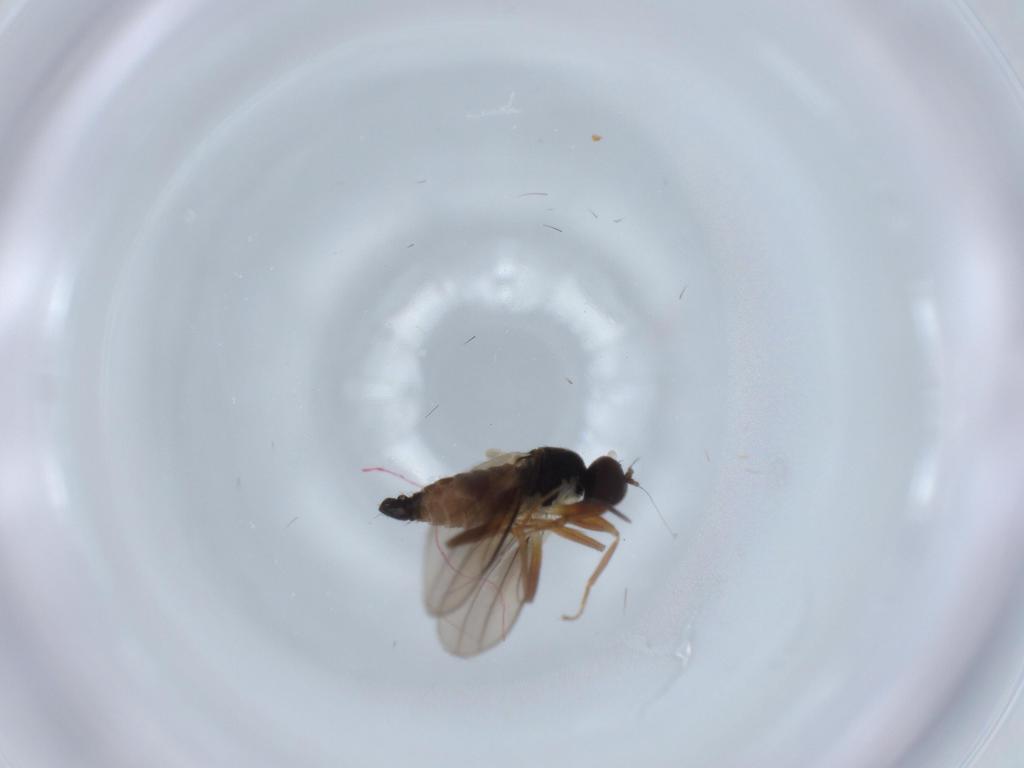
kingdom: Animalia
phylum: Arthropoda
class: Insecta
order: Diptera
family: Hybotidae
